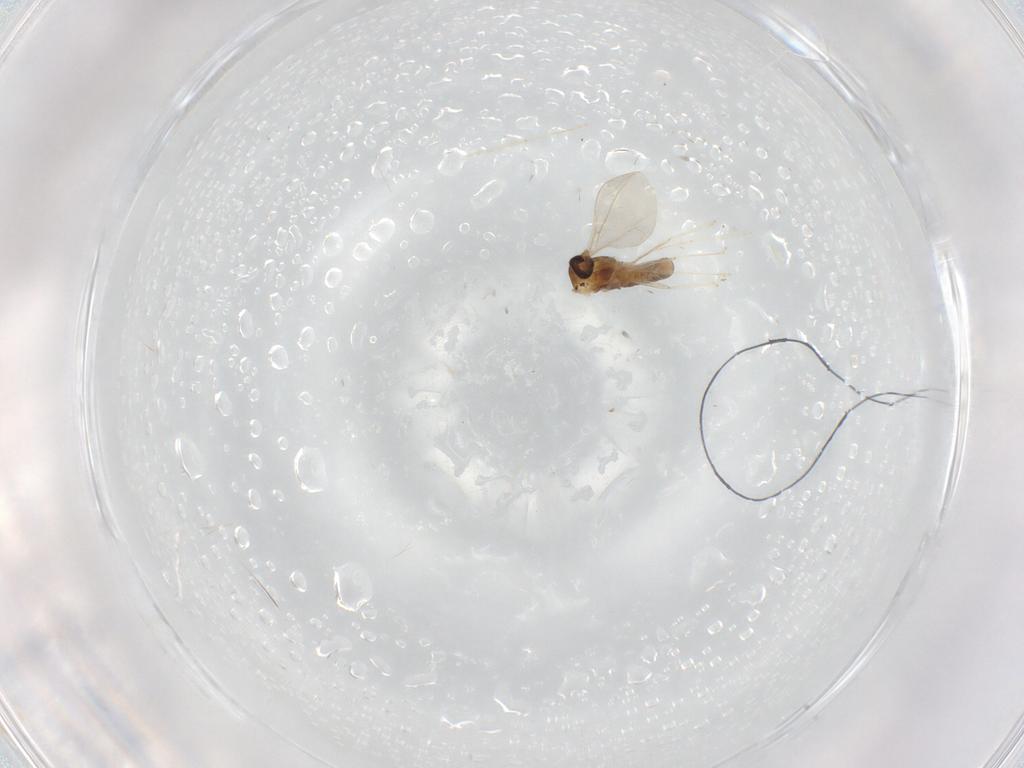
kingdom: Animalia
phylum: Arthropoda
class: Insecta
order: Diptera
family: Cecidomyiidae
